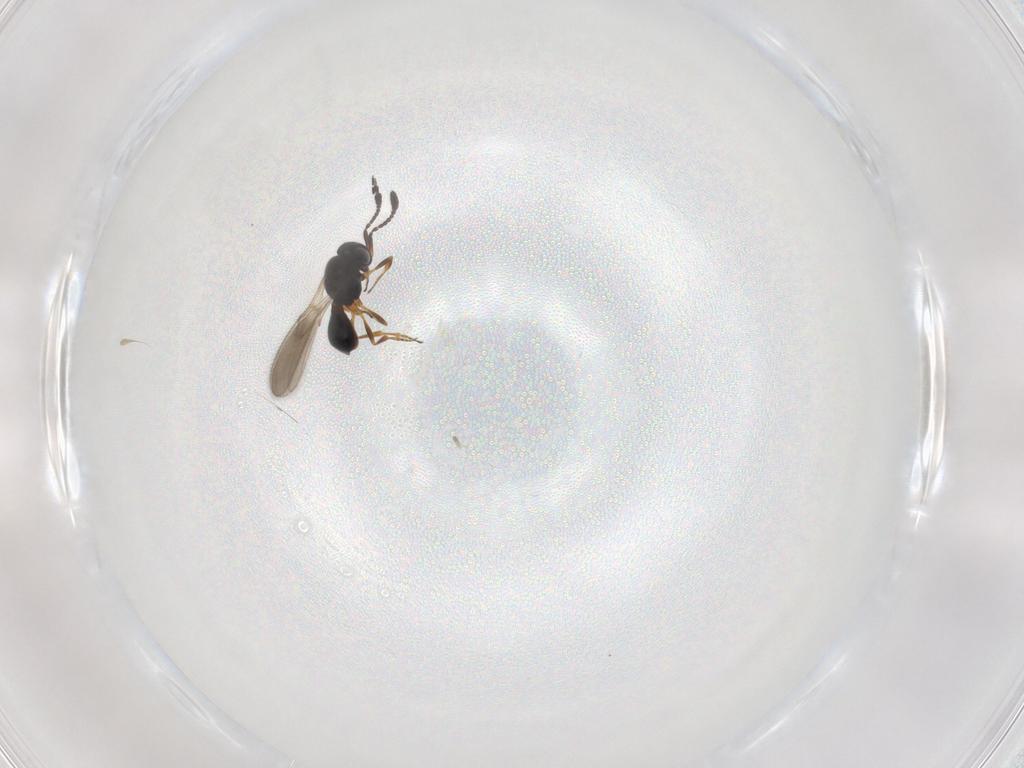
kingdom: Animalia
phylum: Arthropoda
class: Insecta
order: Hymenoptera
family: Scelionidae
